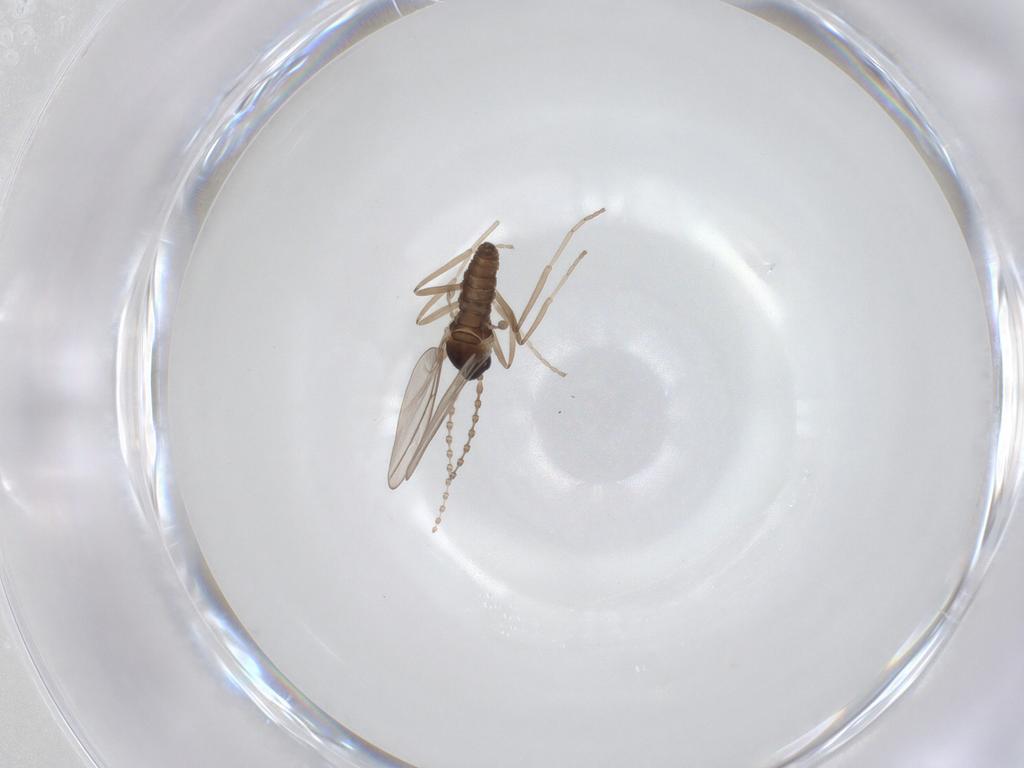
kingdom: Animalia
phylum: Arthropoda
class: Insecta
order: Diptera
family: Cecidomyiidae
